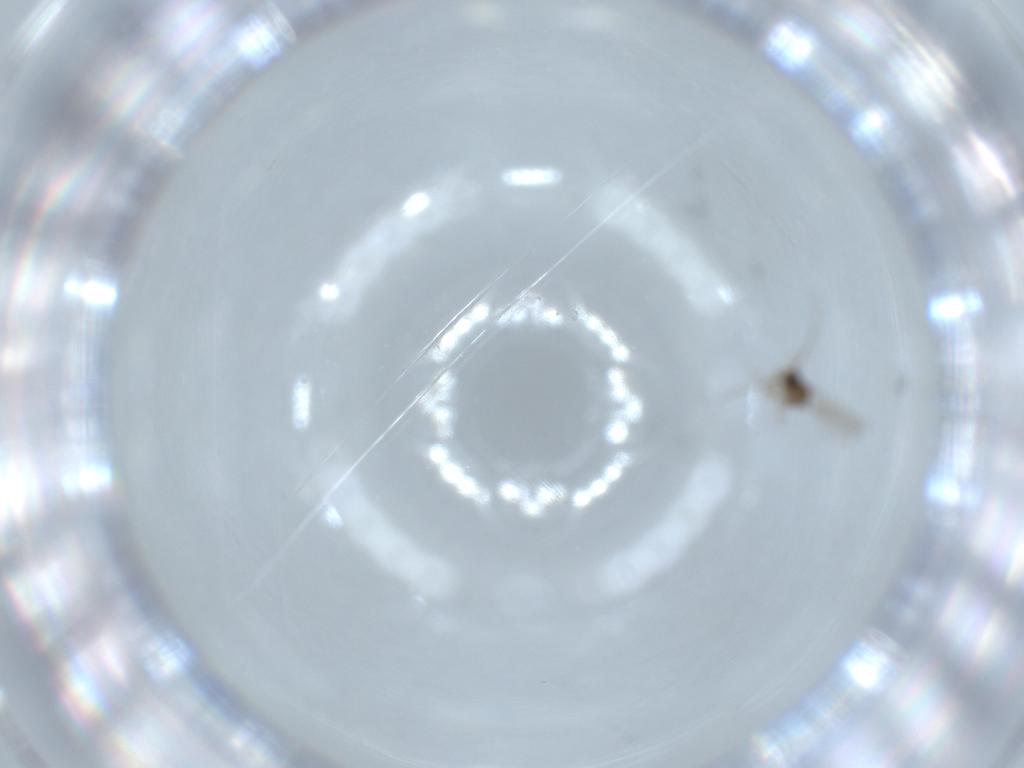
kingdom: Animalia
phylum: Arthropoda
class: Insecta
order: Diptera
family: Cecidomyiidae
